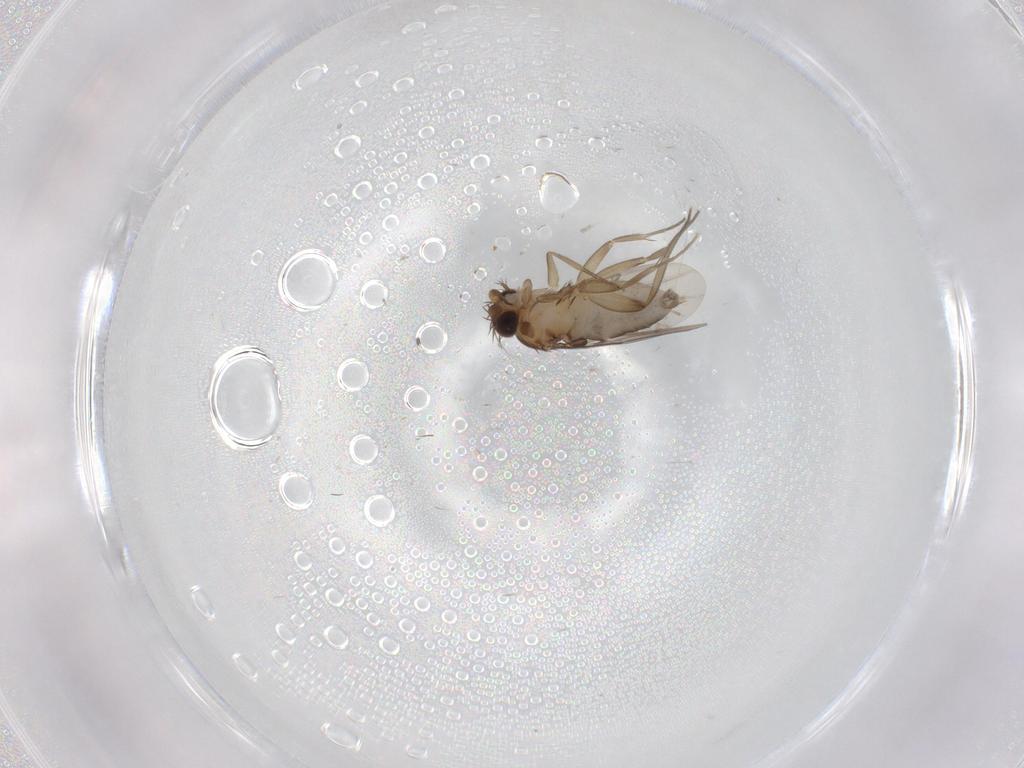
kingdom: Animalia
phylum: Arthropoda
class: Insecta
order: Diptera
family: Phoridae
